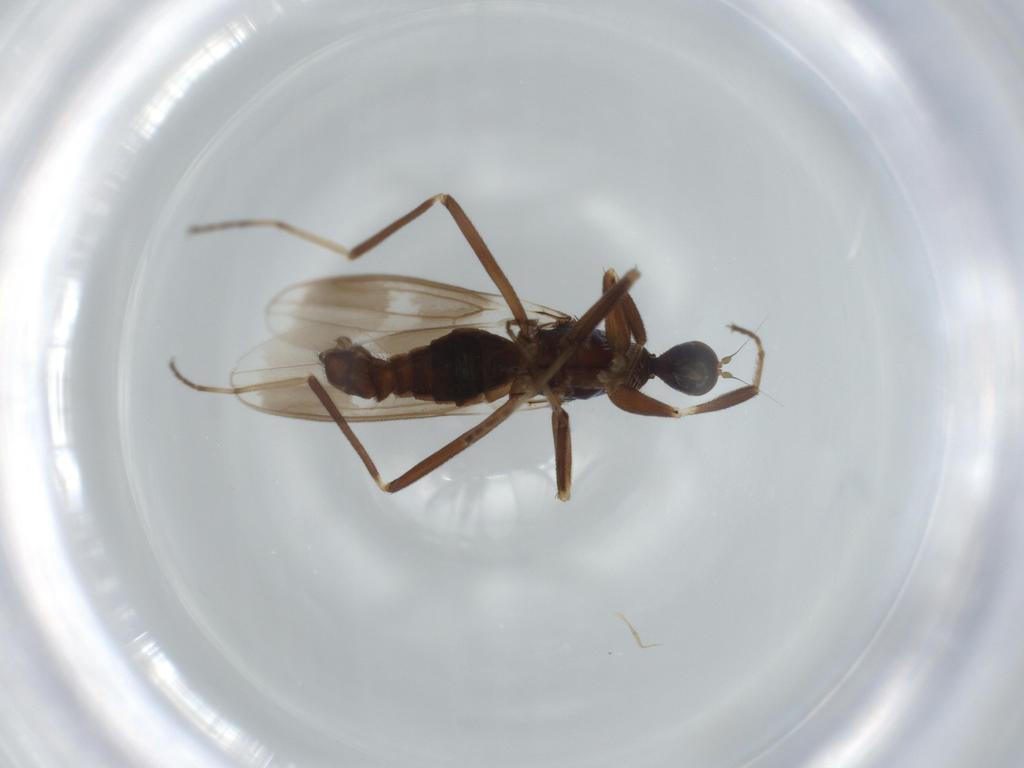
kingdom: Animalia
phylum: Arthropoda
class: Insecta
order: Diptera
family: Hybotidae
